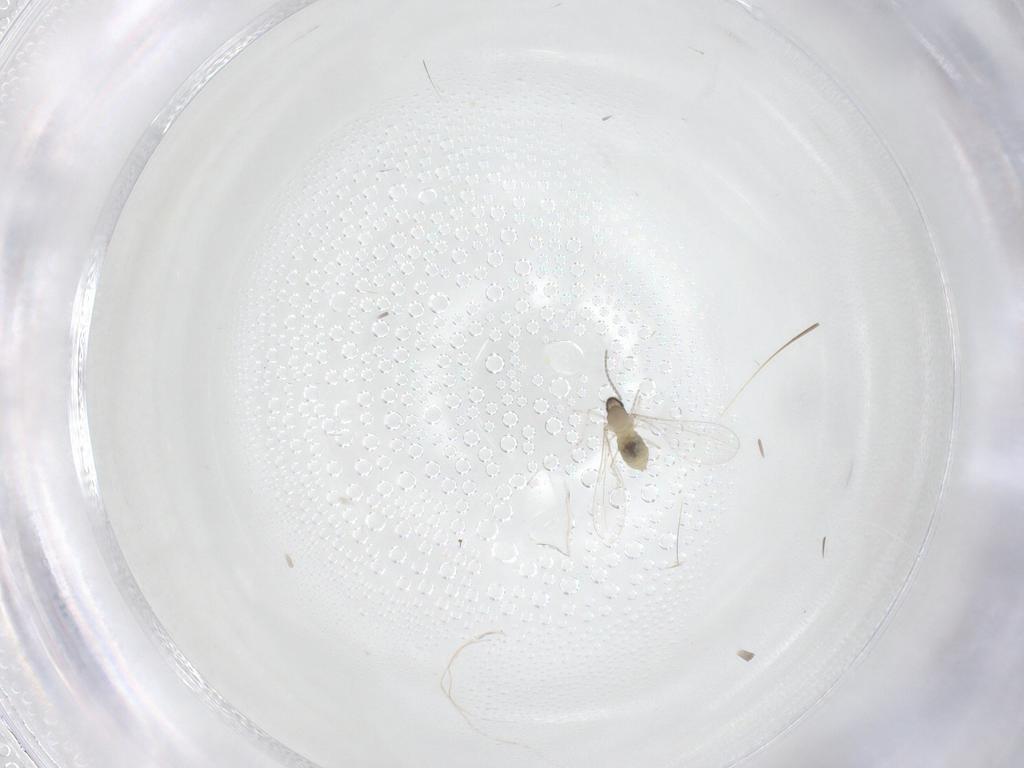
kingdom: Animalia
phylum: Arthropoda
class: Insecta
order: Diptera
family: Cecidomyiidae
